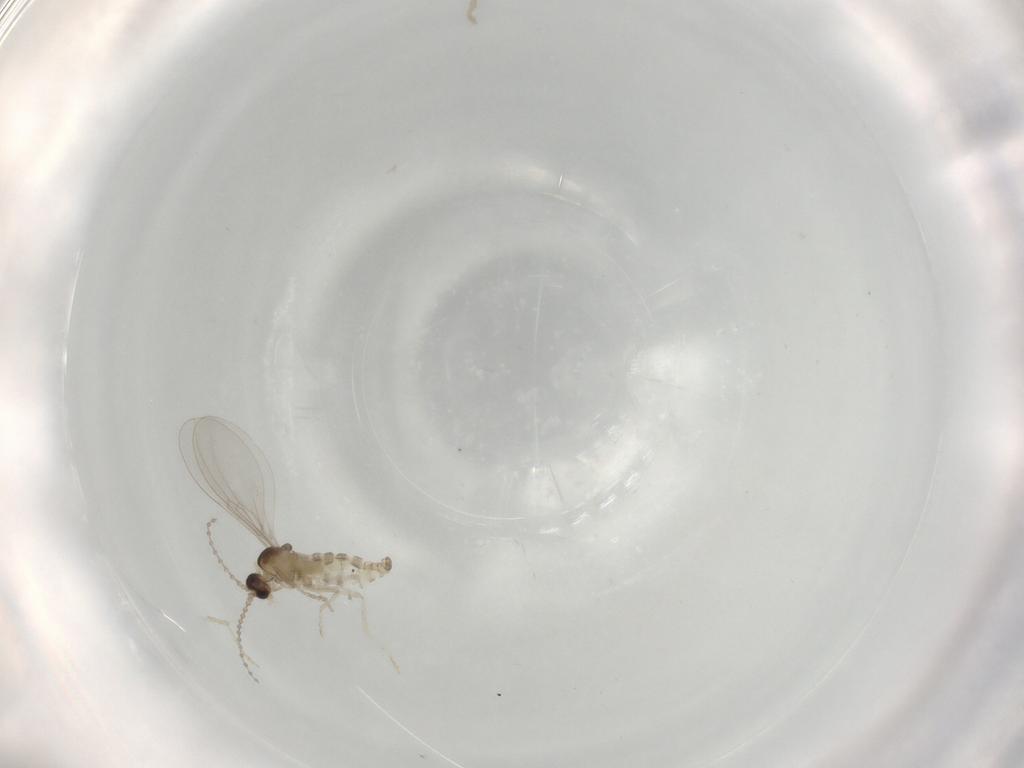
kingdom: Animalia
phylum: Arthropoda
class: Insecta
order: Diptera
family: Cecidomyiidae
